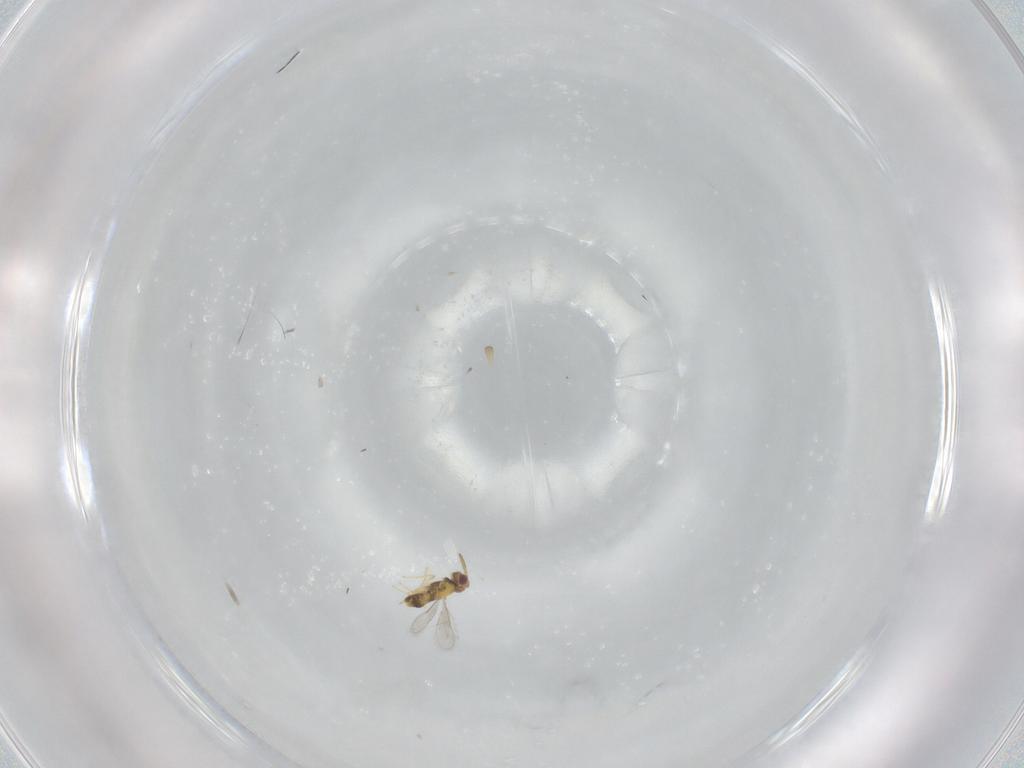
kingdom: Animalia
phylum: Arthropoda
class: Insecta
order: Hymenoptera
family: Aphelinidae
